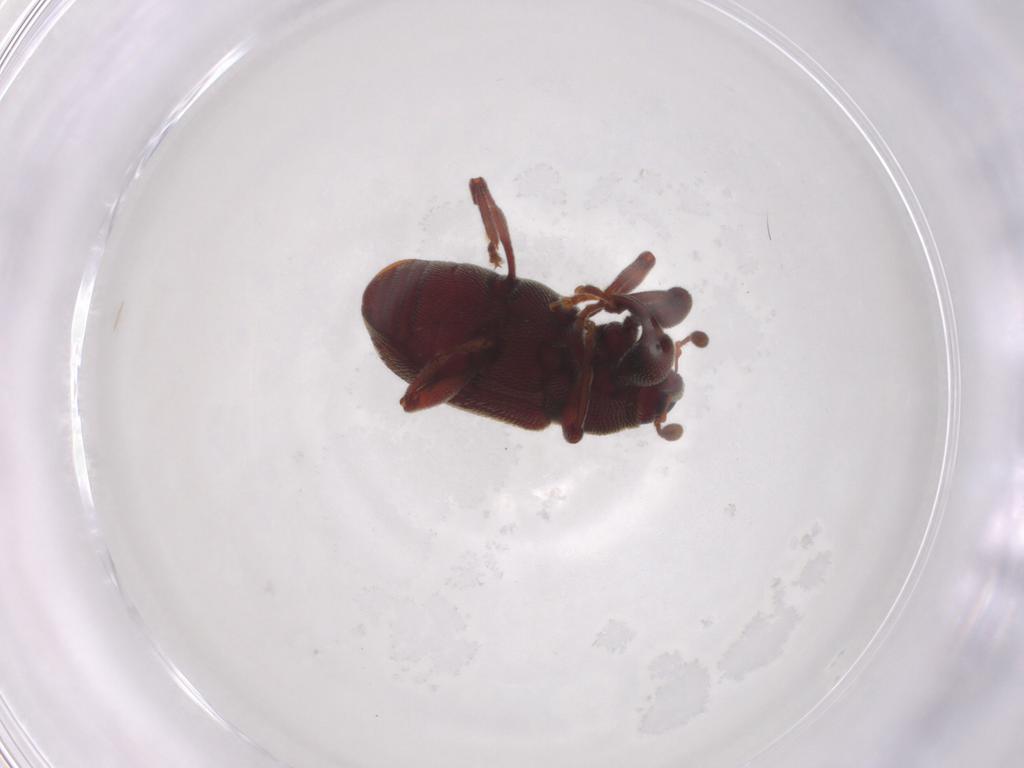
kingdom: Animalia
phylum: Arthropoda
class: Insecta
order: Coleoptera
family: Curculionidae
